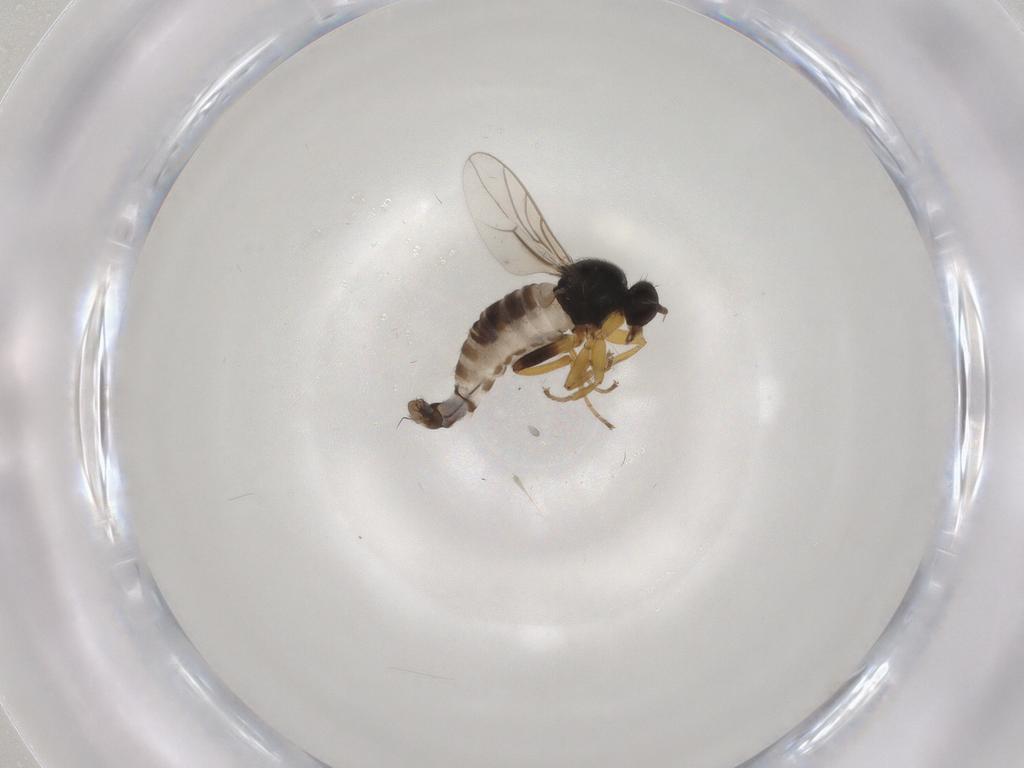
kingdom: Animalia
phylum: Arthropoda
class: Insecta
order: Diptera
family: Hybotidae
